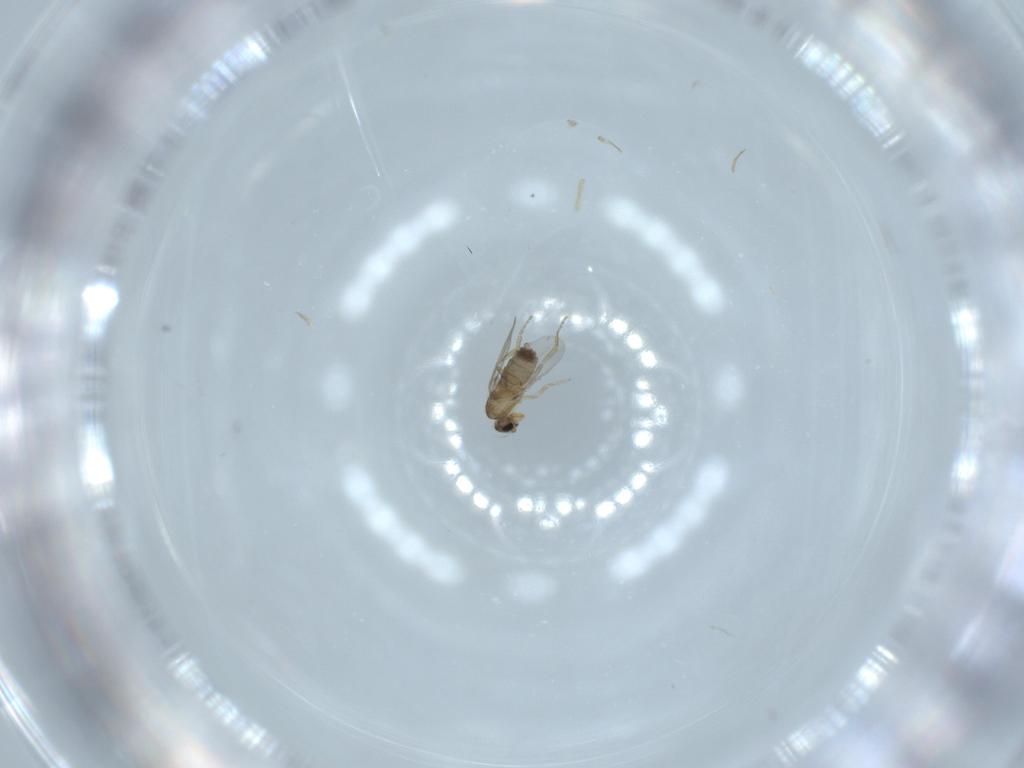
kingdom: Animalia
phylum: Arthropoda
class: Insecta
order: Diptera
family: Phoridae
